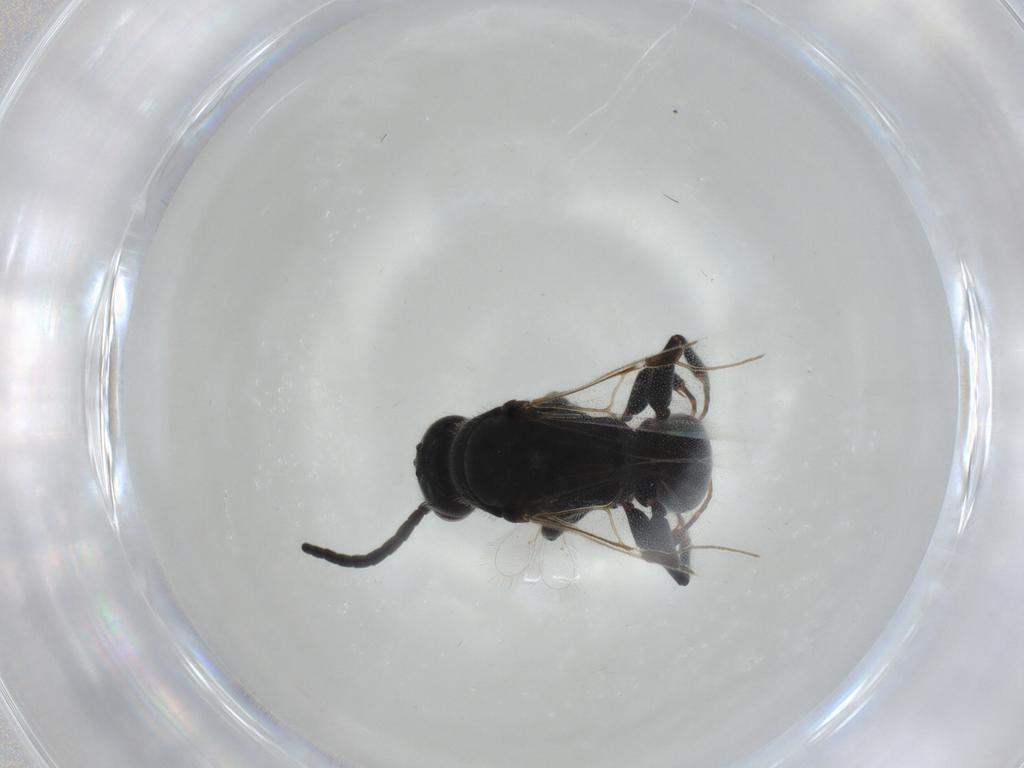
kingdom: Animalia
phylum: Arthropoda
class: Insecta
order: Hymenoptera
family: Bethylidae
